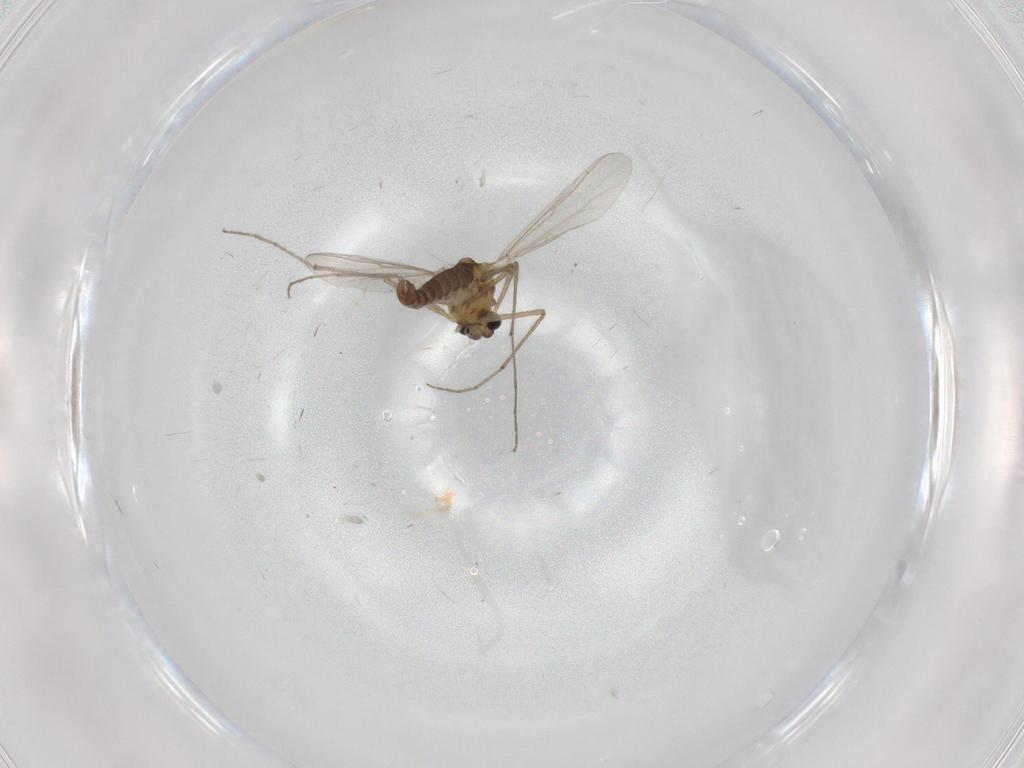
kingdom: Animalia
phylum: Arthropoda
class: Insecta
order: Diptera
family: Chironomidae
